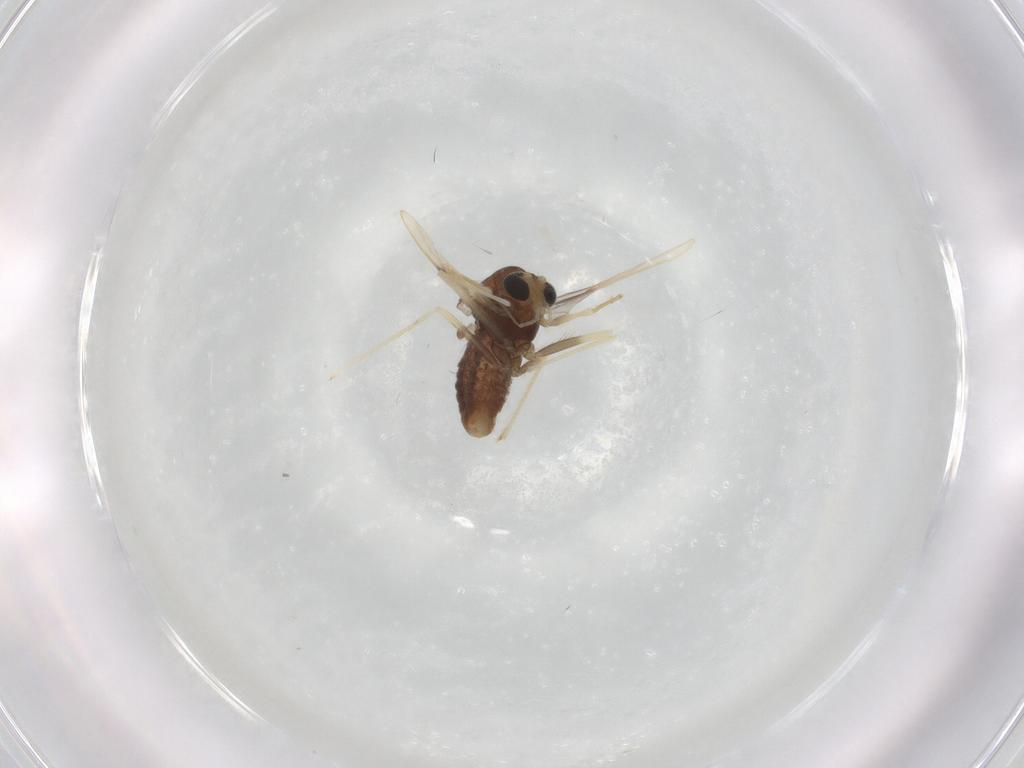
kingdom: Animalia
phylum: Arthropoda
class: Insecta
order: Diptera
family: Chironomidae
